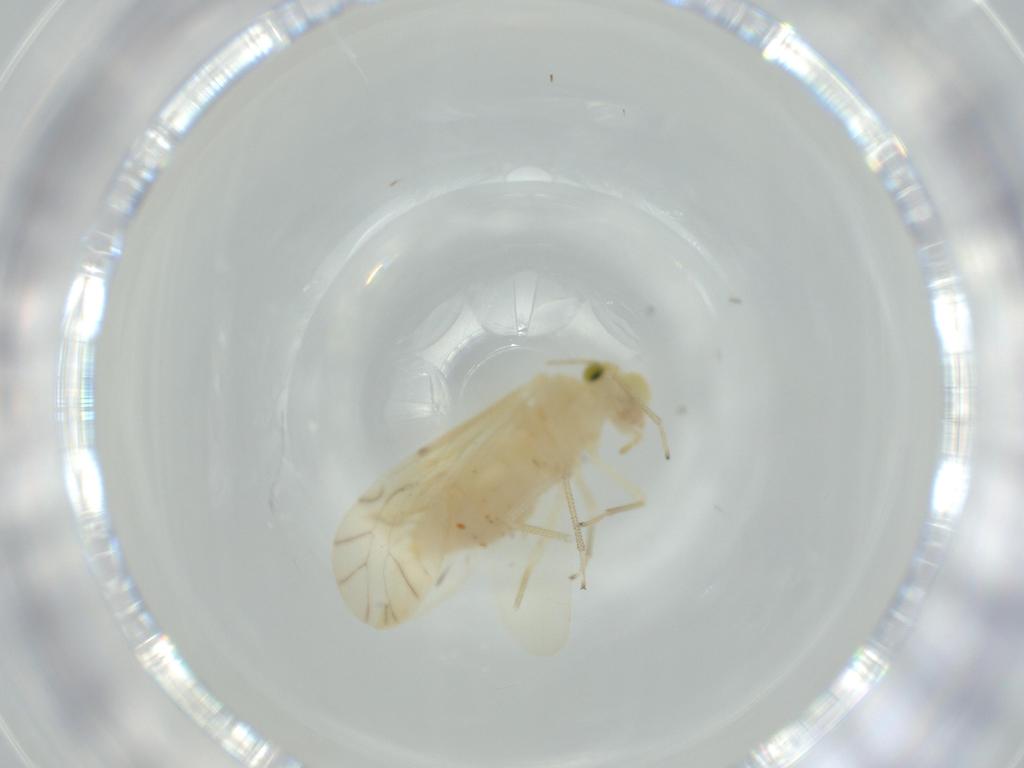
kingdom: Animalia
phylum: Arthropoda
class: Insecta
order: Psocodea
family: Caeciliusidae
